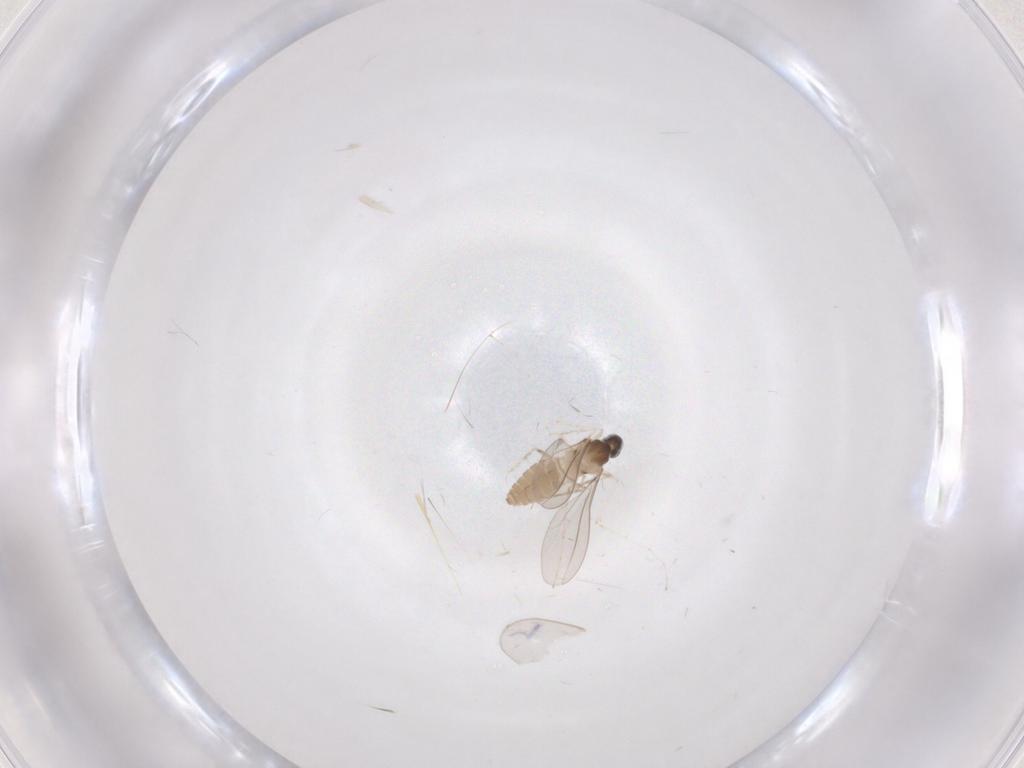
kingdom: Animalia
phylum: Arthropoda
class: Insecta
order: Diptera
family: Cecidomyiidae
